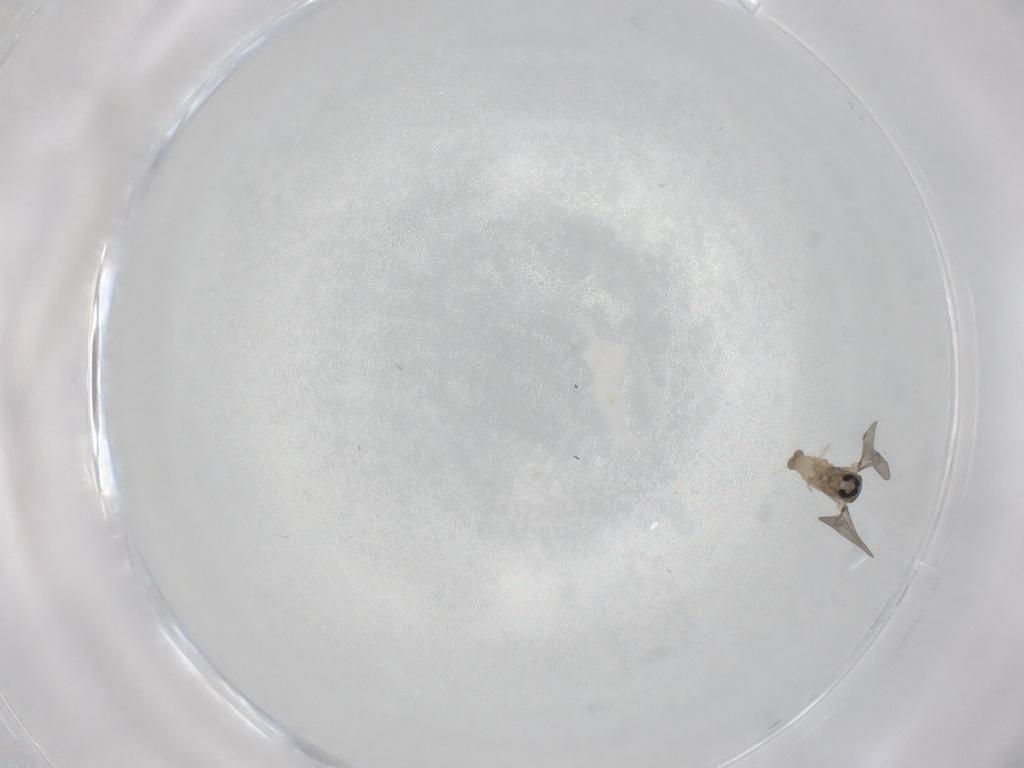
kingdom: Animalia
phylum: Arthropoda
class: Insecta
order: Diptera
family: Cecidomyiidae
